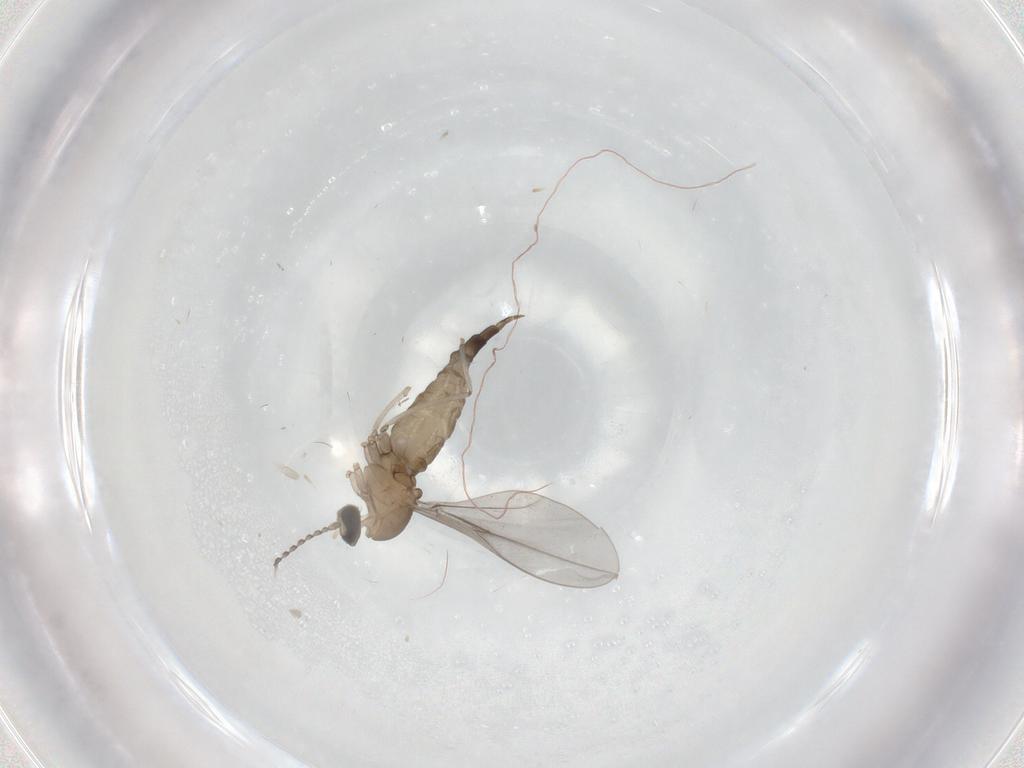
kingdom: Animalia
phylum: Arthropoda
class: Insecta
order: Diptera
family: Cecidomyiidae
